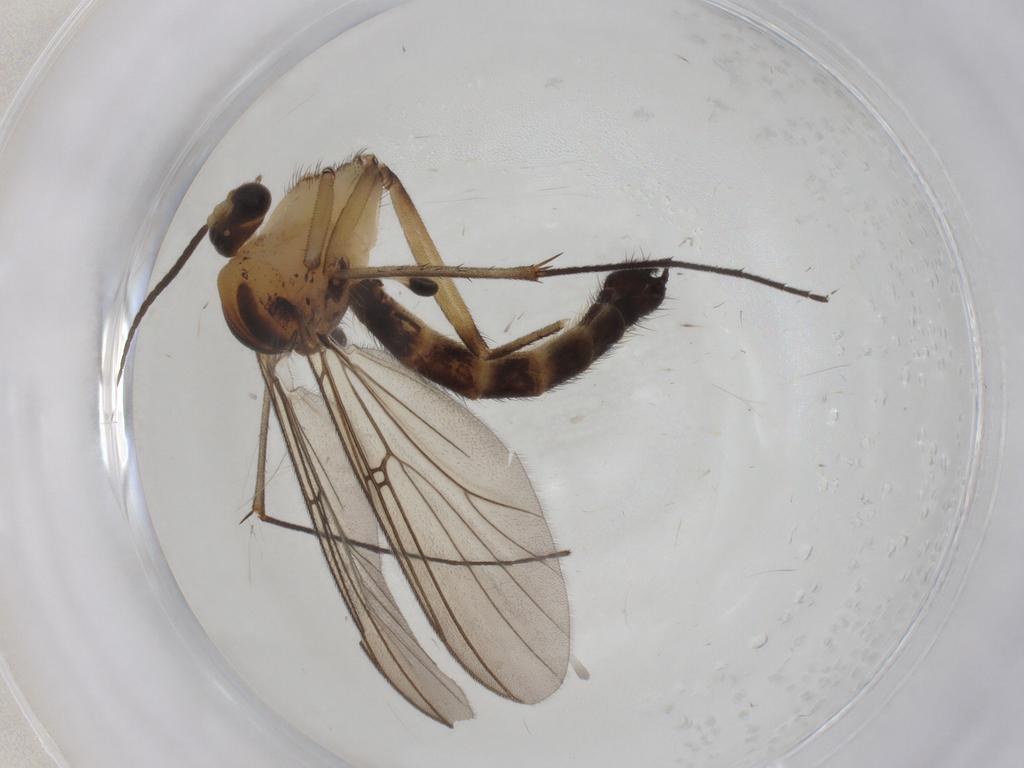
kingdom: Animalia
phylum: Arthropoda
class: Insecta
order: Diptera
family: Mycetophilidae
